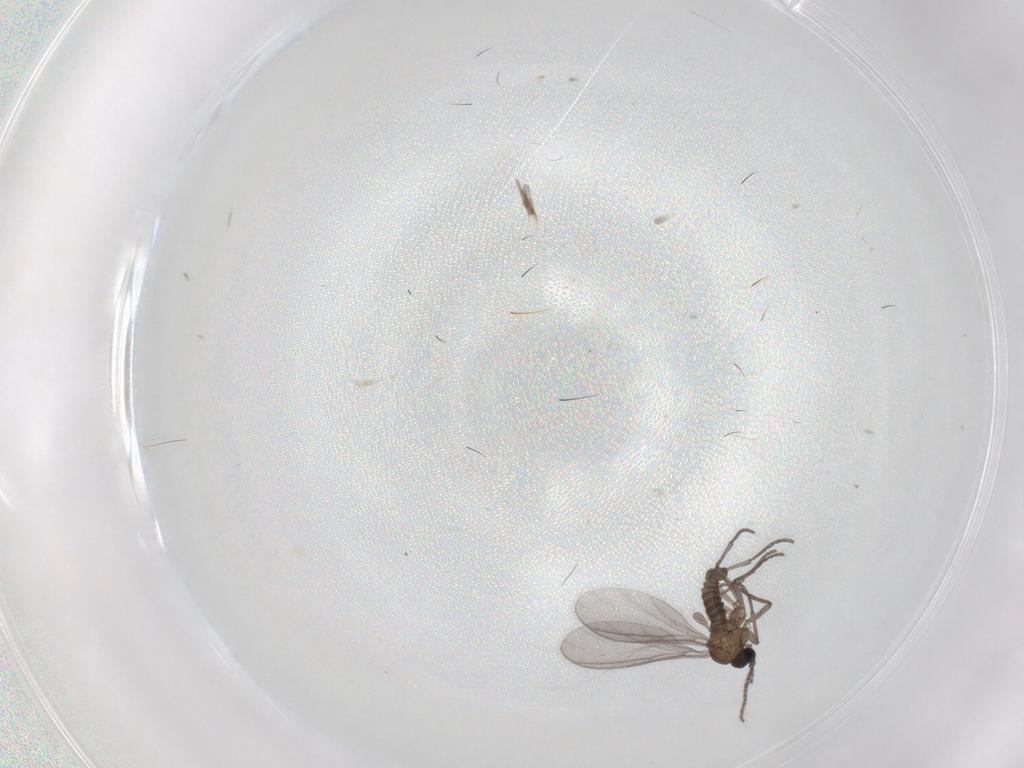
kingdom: Animalia
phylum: Arthropoda
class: Insecta
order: Diptera
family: Sciaridae
